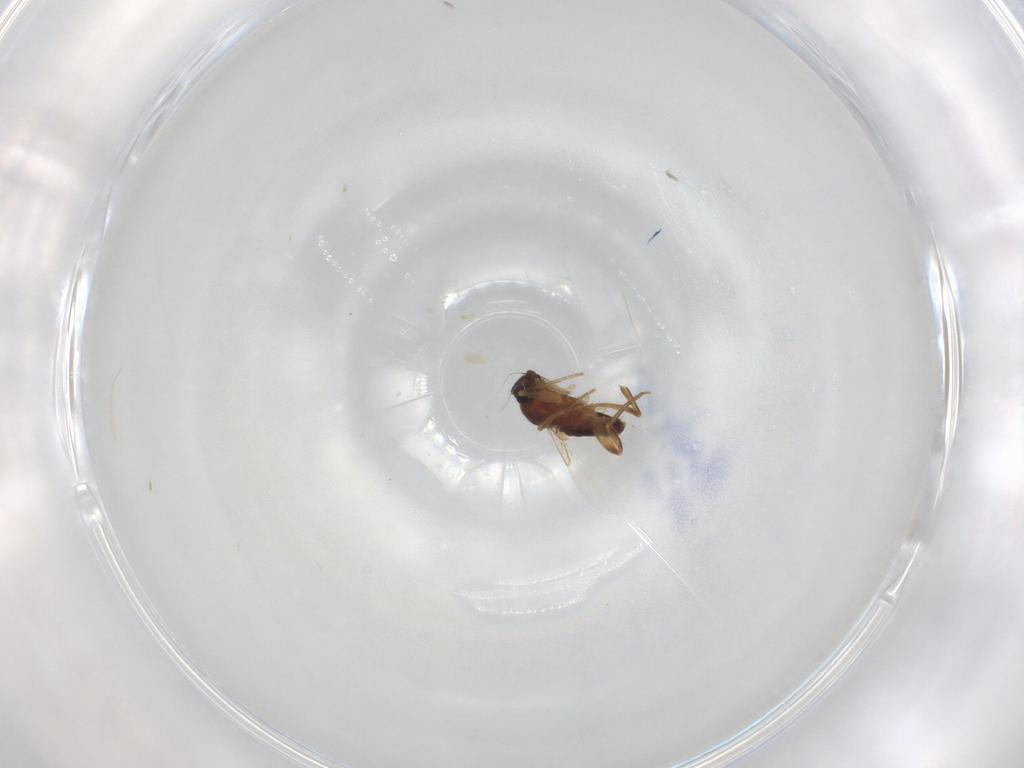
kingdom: Animalia
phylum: Arthropoda
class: Insecta
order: Diptera
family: Phoridae
